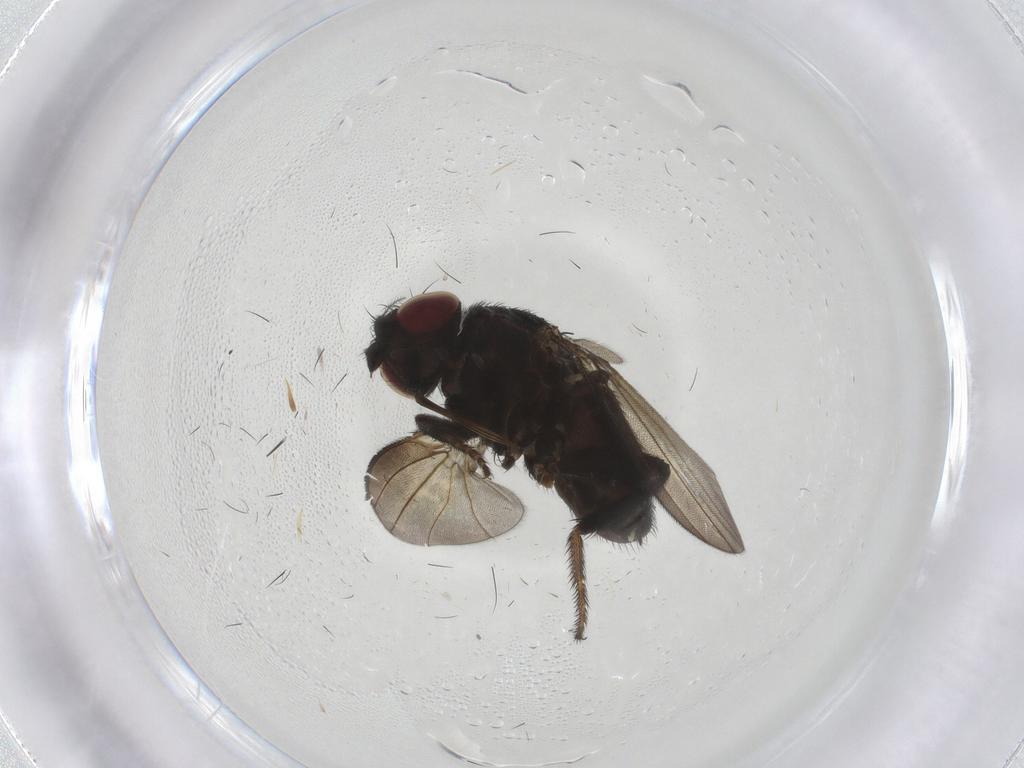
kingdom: Animalia
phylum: Arthropoda
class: Insecta
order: Diptera
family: Milichiidae
